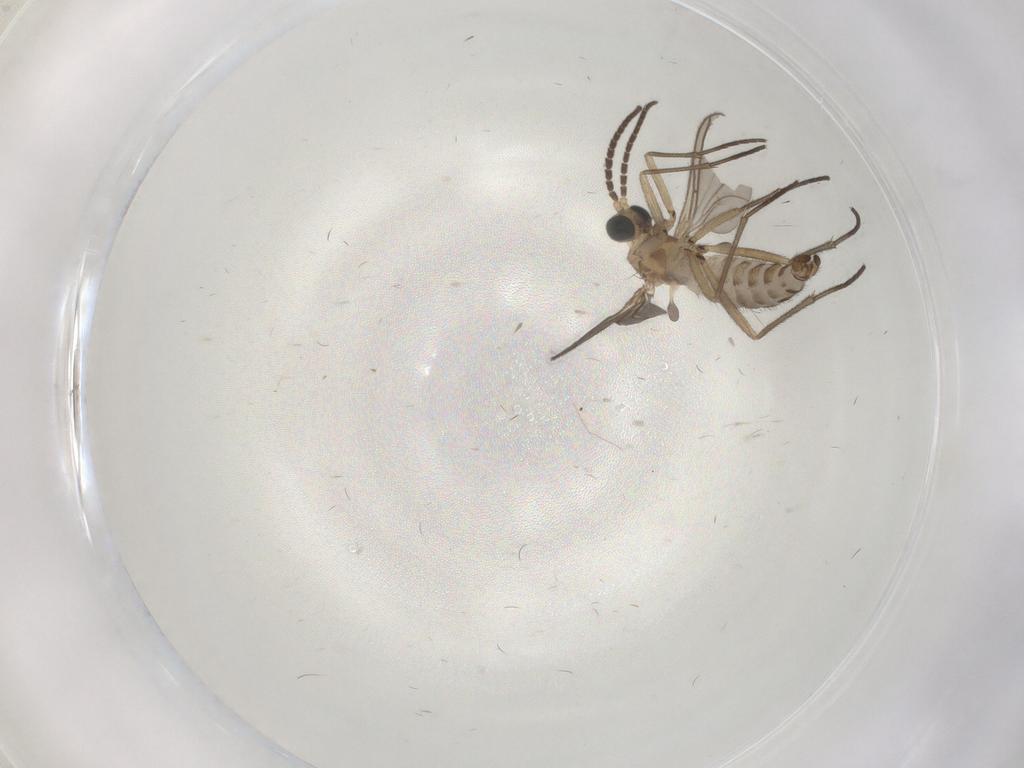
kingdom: Animalia
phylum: Arthropoda
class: Insecta
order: Diptera
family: Sciaridae
